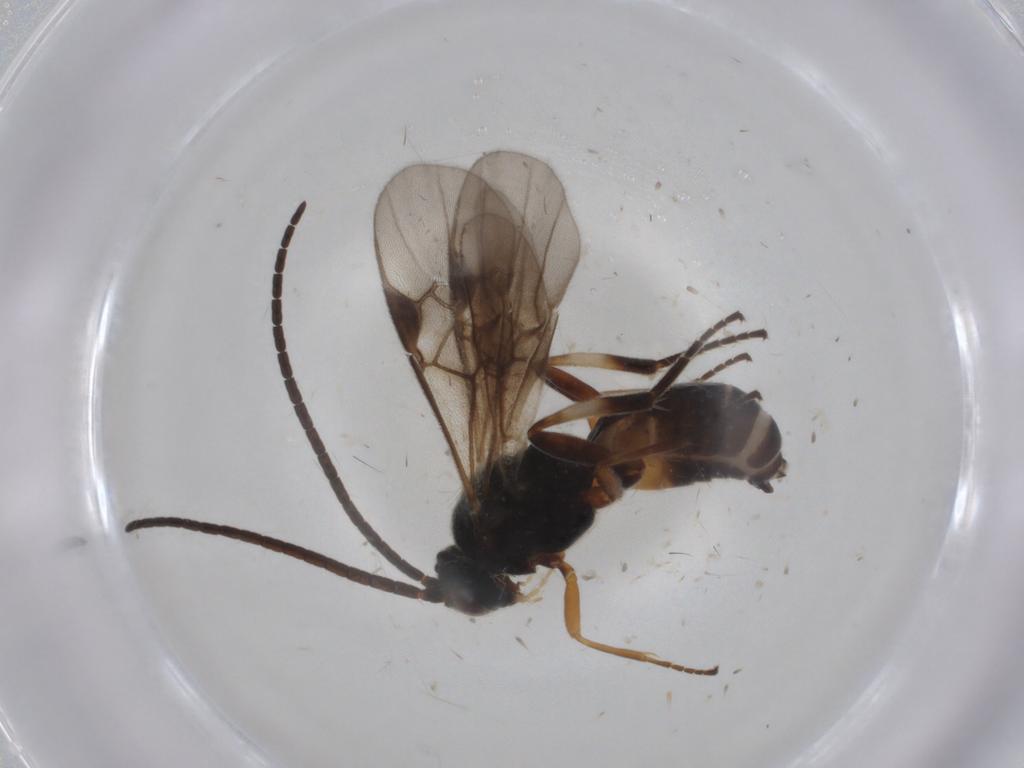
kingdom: Animalia
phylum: Arthropoda
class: Insecta
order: Hymenoptera
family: Braconidae
